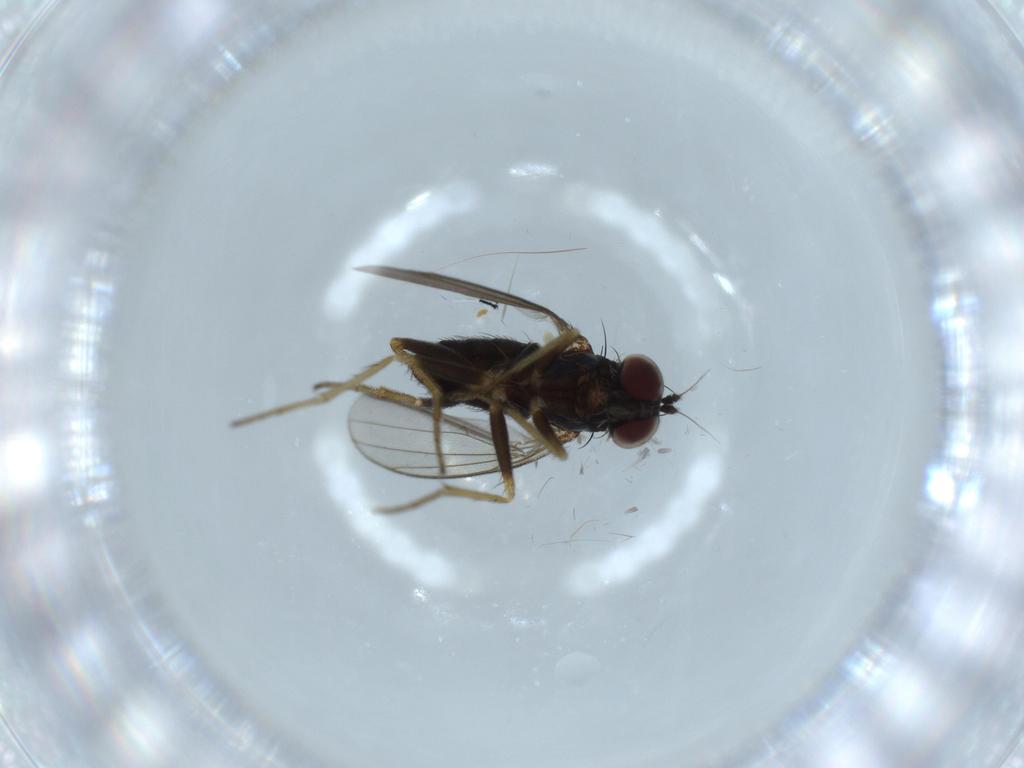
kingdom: Animalia
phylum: Arthropoda
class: Insecta
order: Diptera
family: Dolichopodidae
